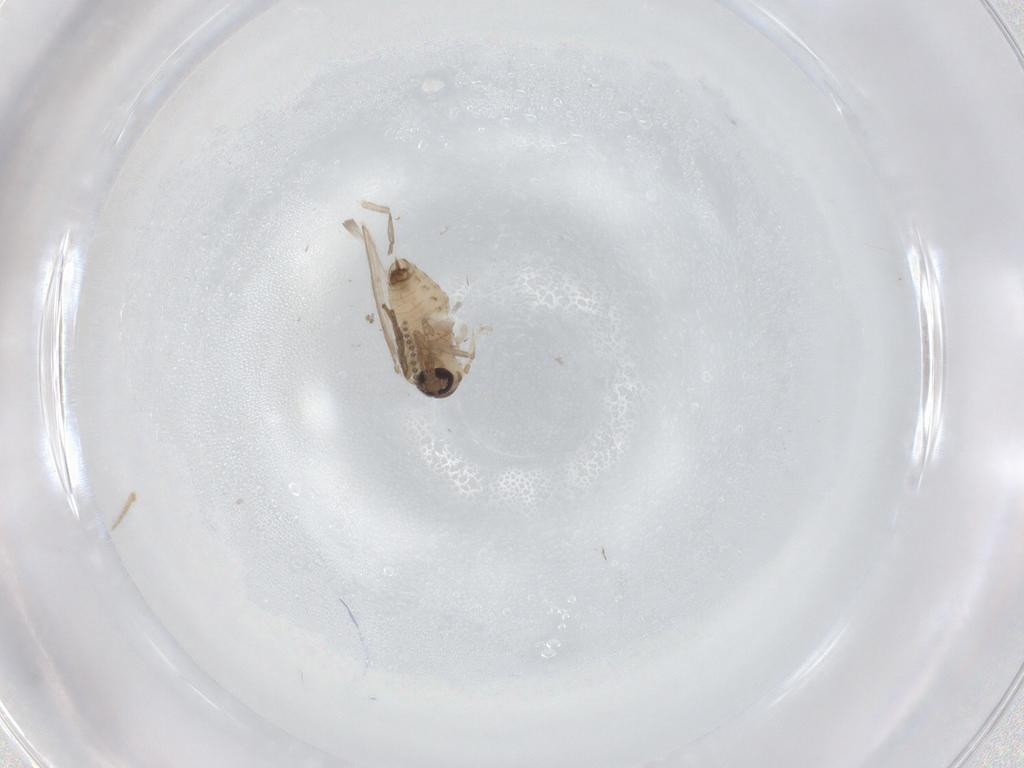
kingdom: Animalia
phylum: Arthropoda
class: Insecta
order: Diptera
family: Psychodidae
